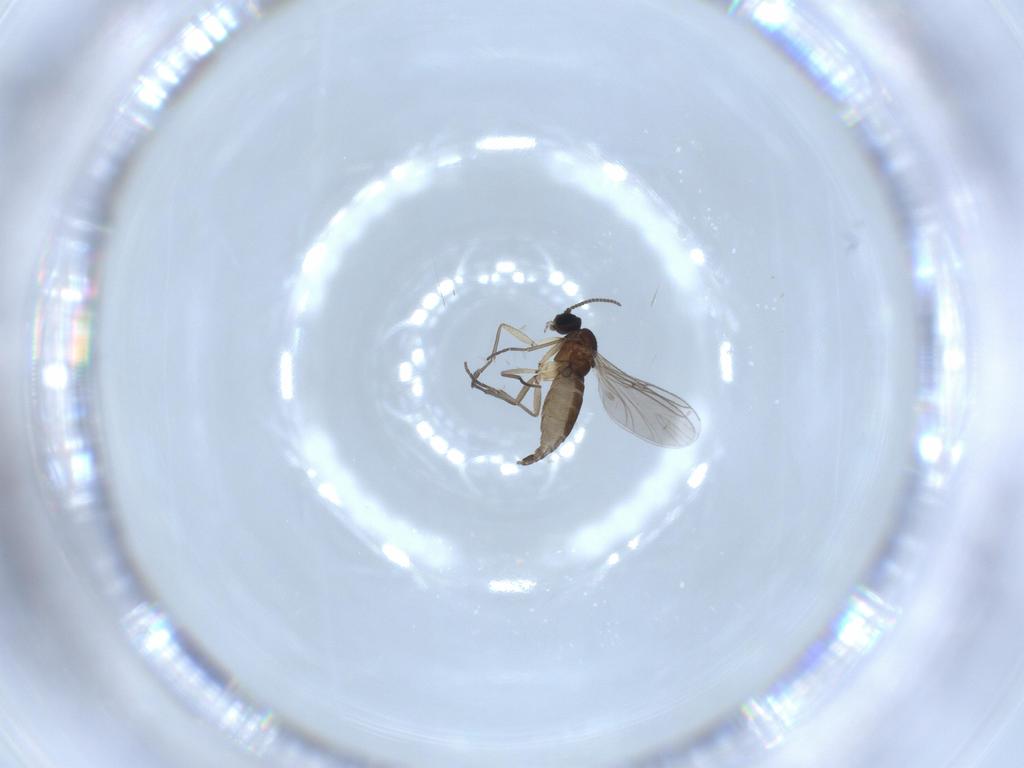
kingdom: Animalia
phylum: Arthropoda
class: Insecta
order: Diptera
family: Sciaridae
